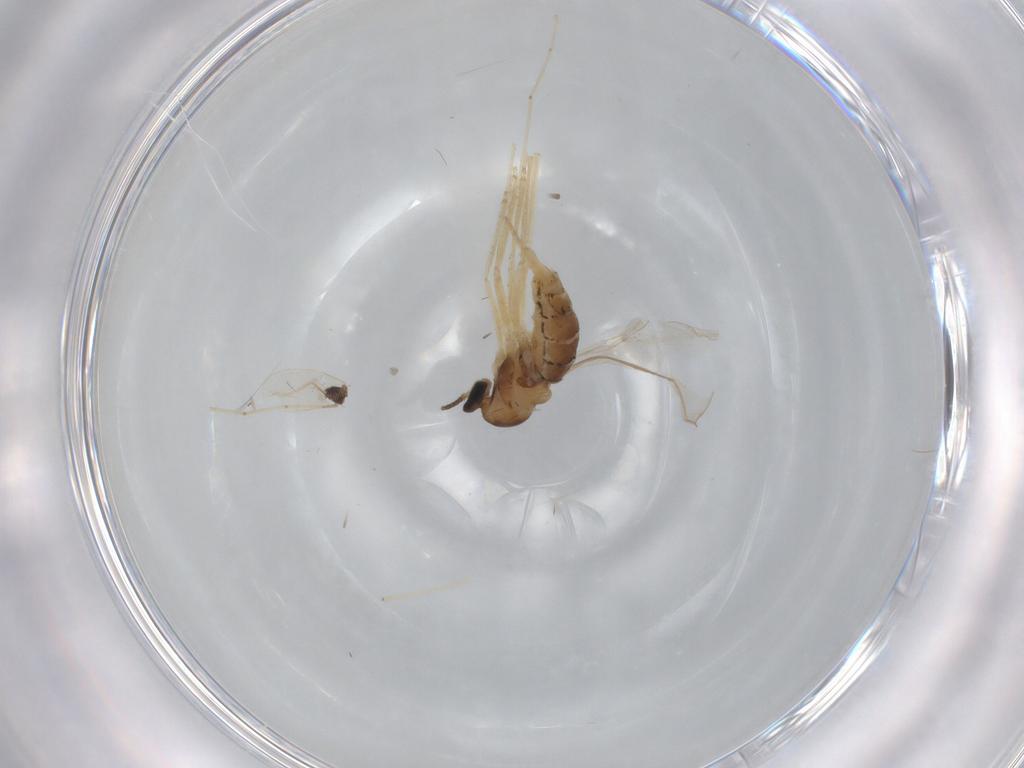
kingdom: Animalia
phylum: Arthropoda
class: Insecta
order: Diptera
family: Cecidomyiidae
